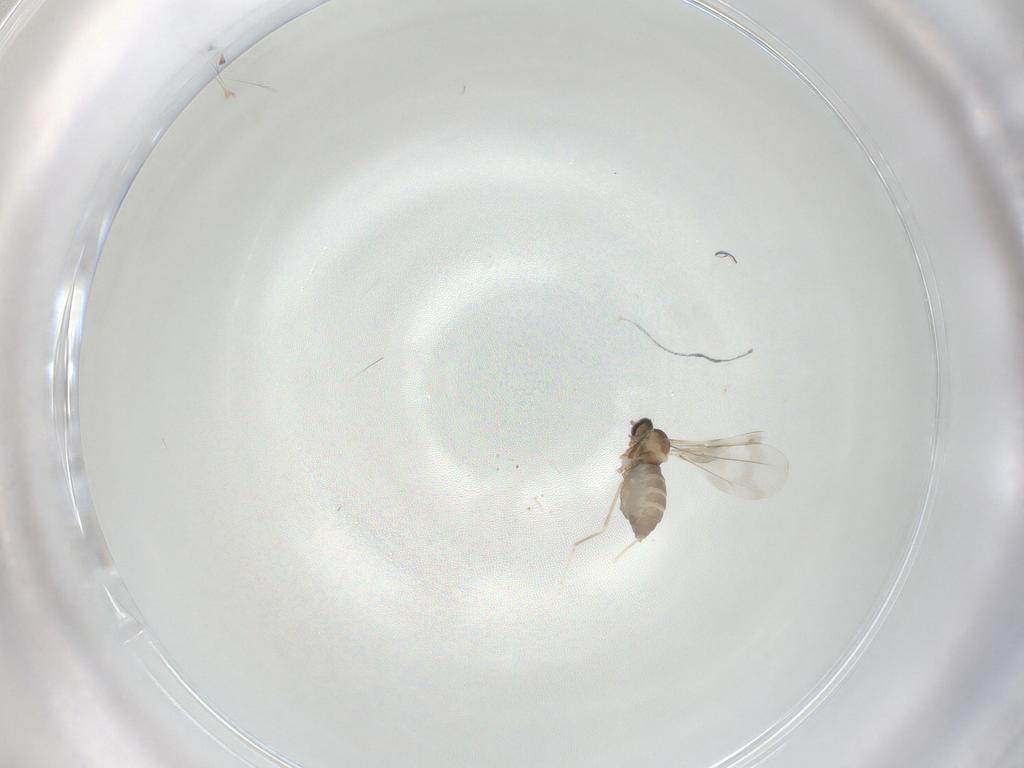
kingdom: Animalia
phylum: Arthropoda
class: Insecta
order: Diptera
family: Cecidomyiidae
